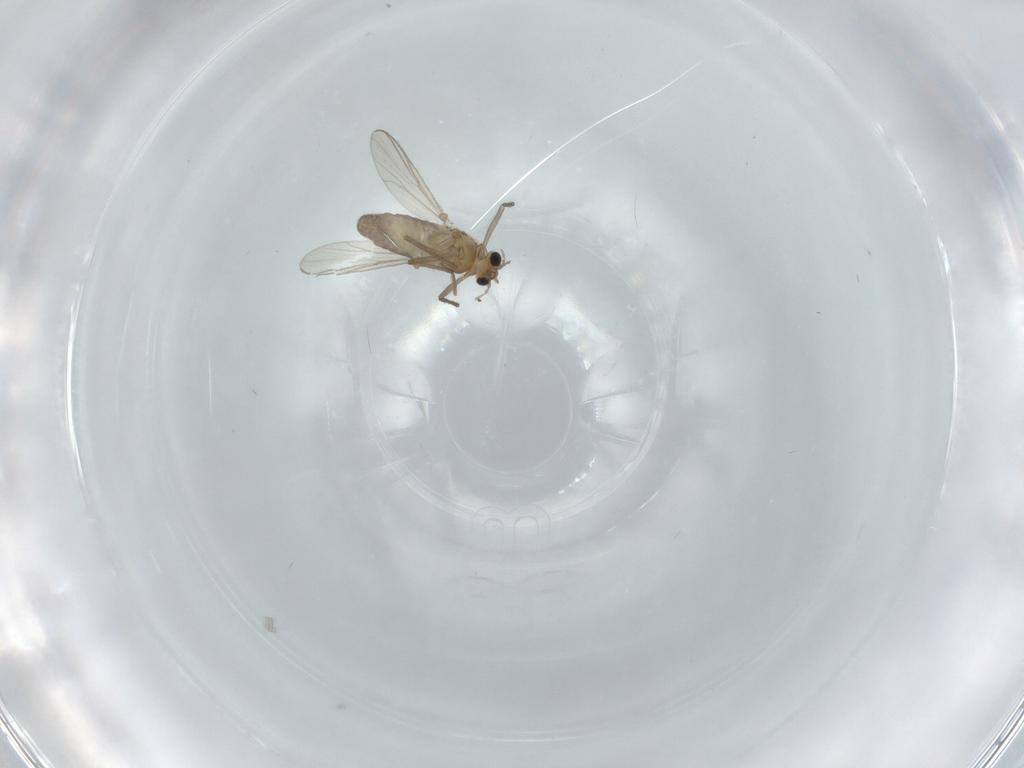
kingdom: Animalia
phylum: Arthropoda
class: Insecta
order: Diptera
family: Chironomidae
